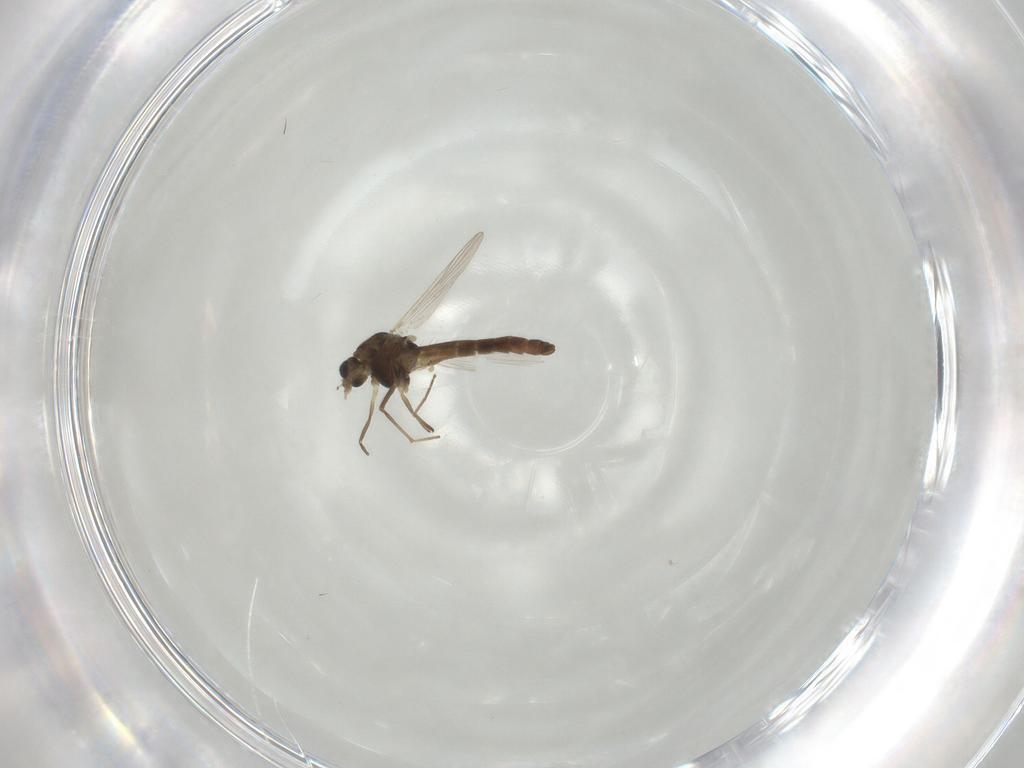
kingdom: Animalia
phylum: Arthropoda
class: Insecta
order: Diptera
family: Chironomidae
